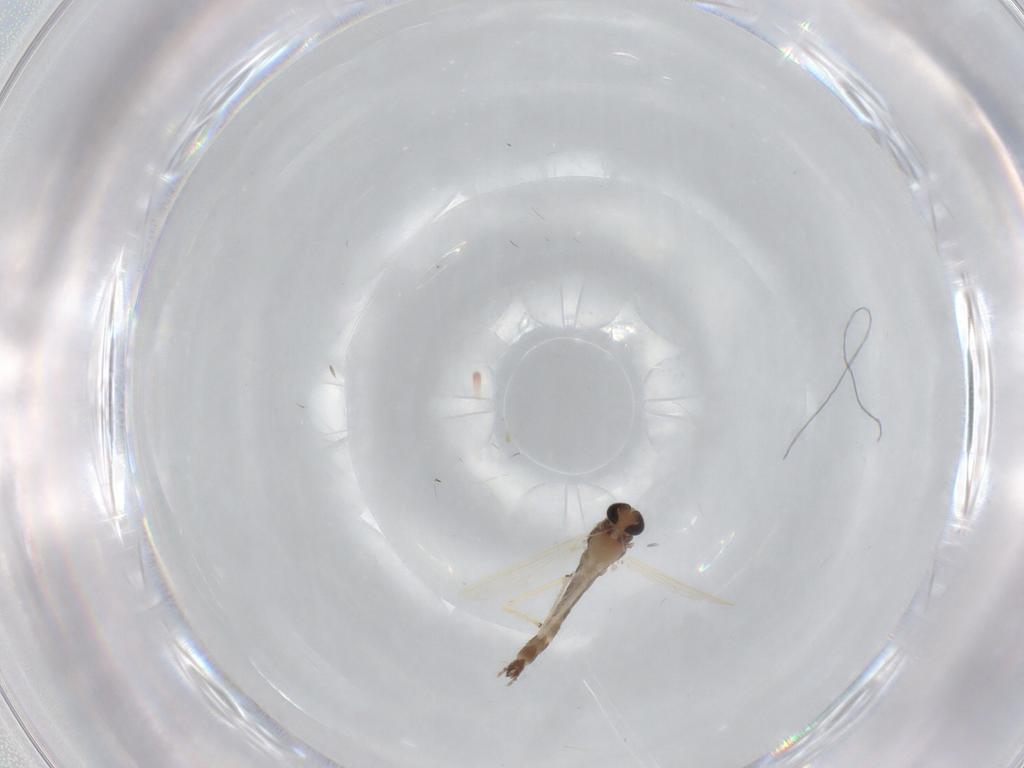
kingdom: Animalia
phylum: Arthropoda
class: Insecta
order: Diptera
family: Chironomidae
